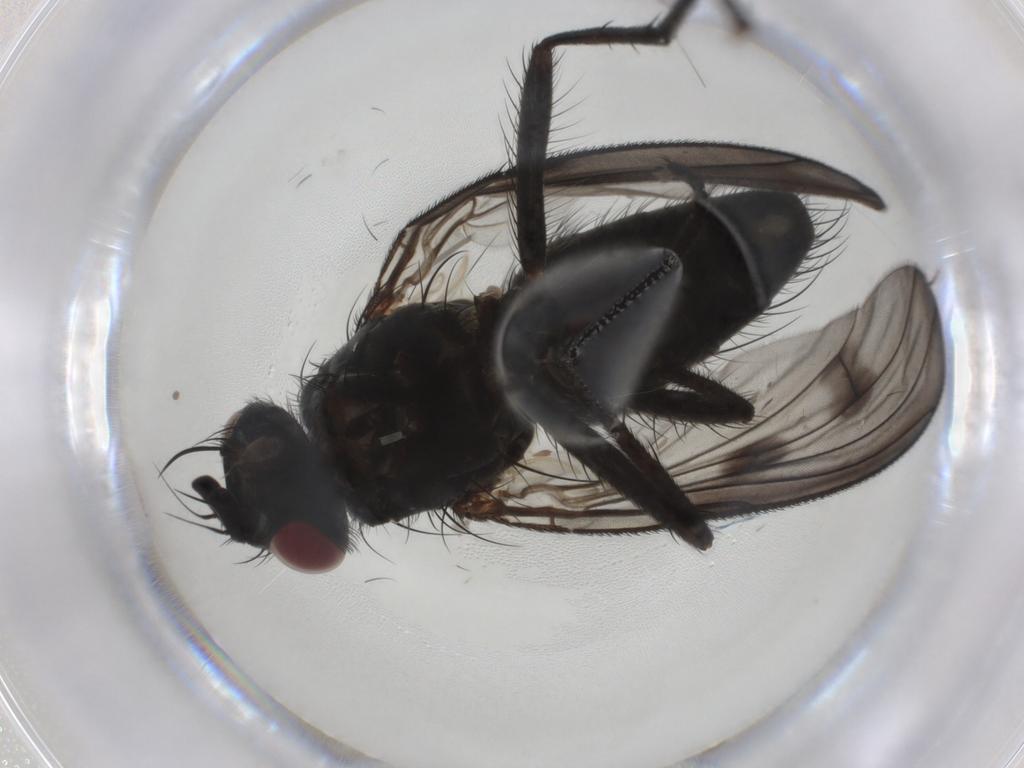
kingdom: Animalia
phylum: Arthropoda
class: Insecta
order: Diptera
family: Muscidae
